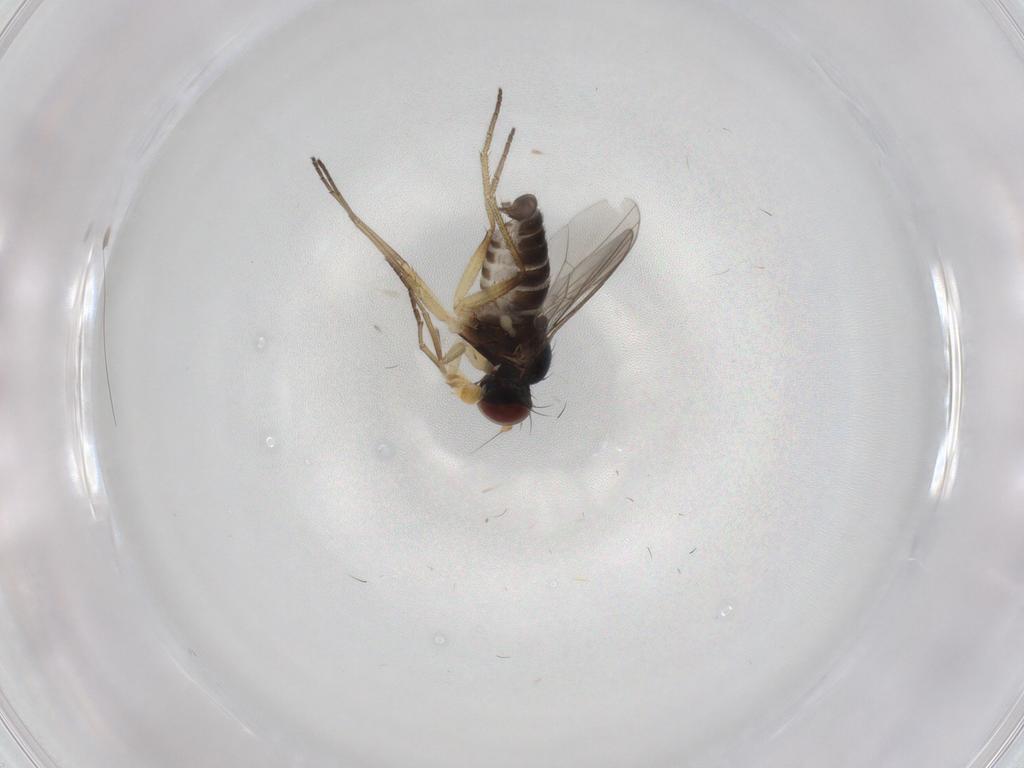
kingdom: Animalia
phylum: Arthropoda
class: Insecta
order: Diptera
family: Dolichopodidae
